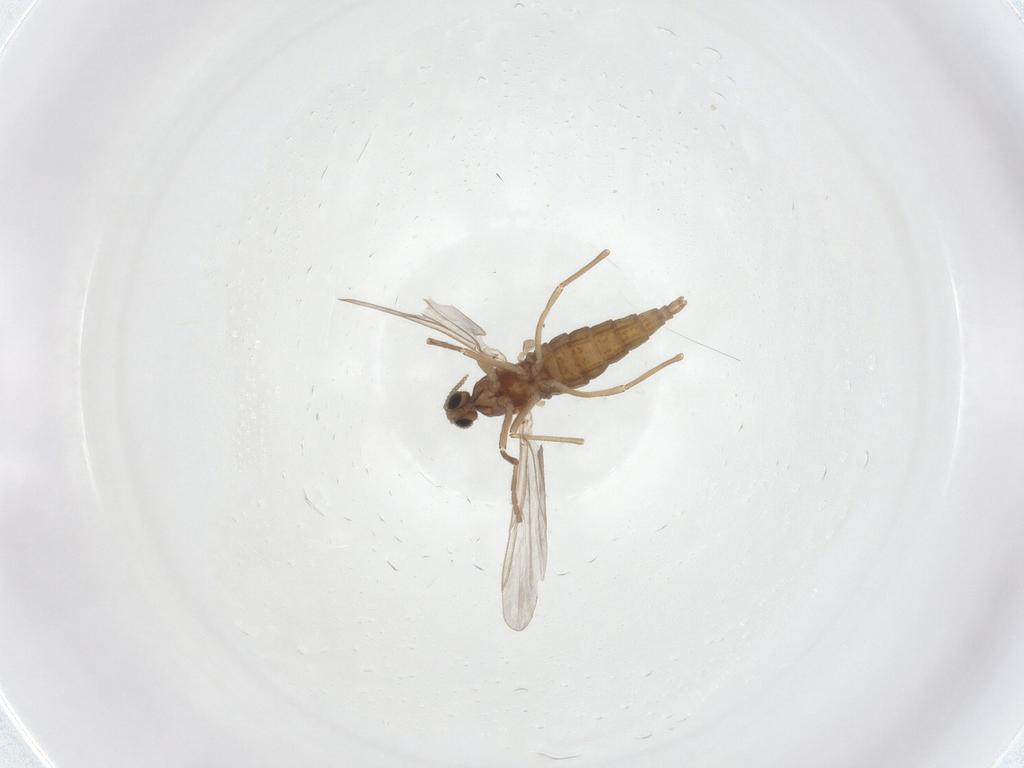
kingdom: Animalia
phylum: Arthropoda
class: Insecta
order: Diptera
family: Cecidomyiidae
